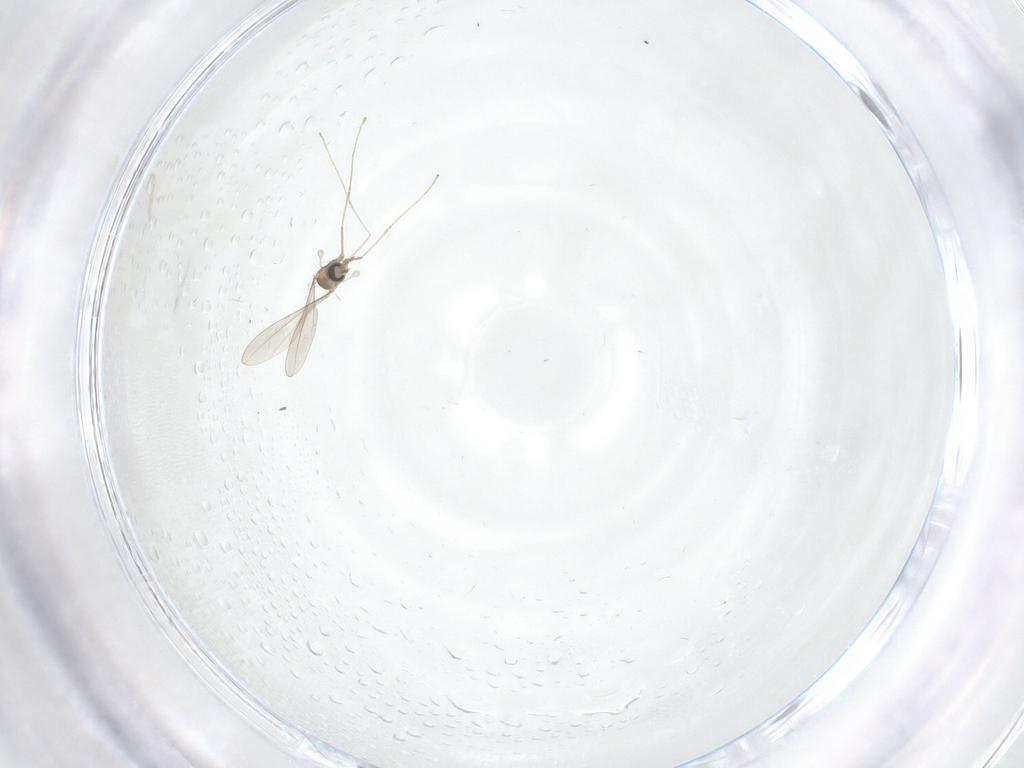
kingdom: Animalia
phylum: Arthropoda
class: Insecta
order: Diptera
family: Cecidomyiidae
